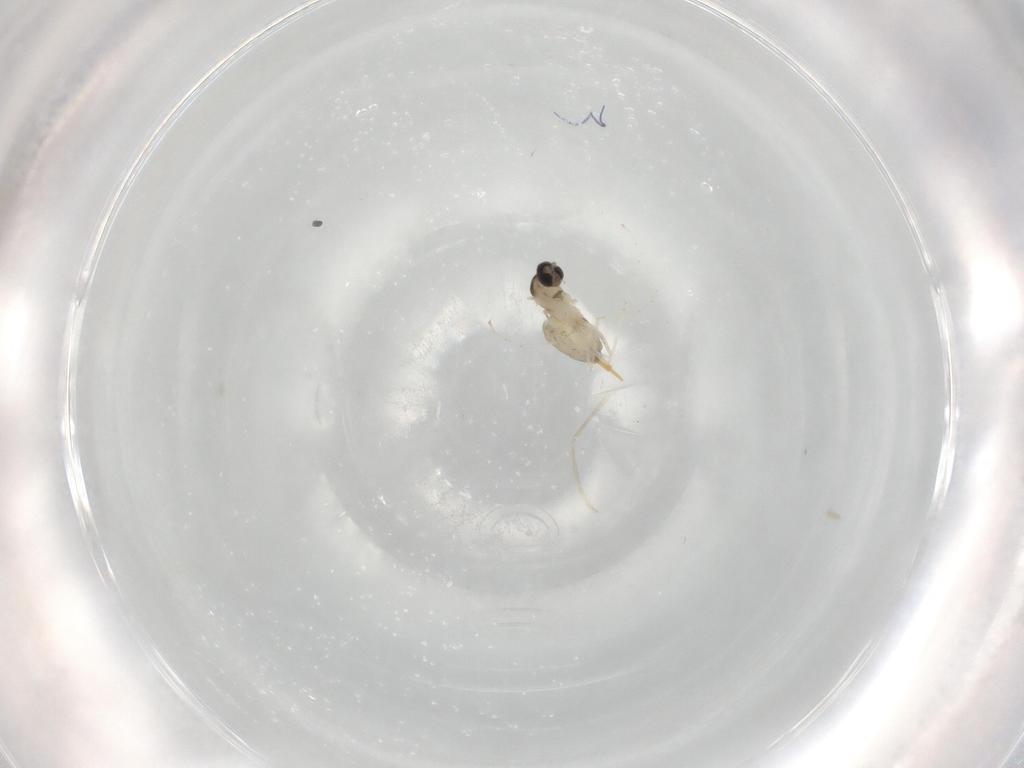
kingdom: Animalia
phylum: Arthropoda
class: Insecta
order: Diptera
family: Cecidomyiidae
